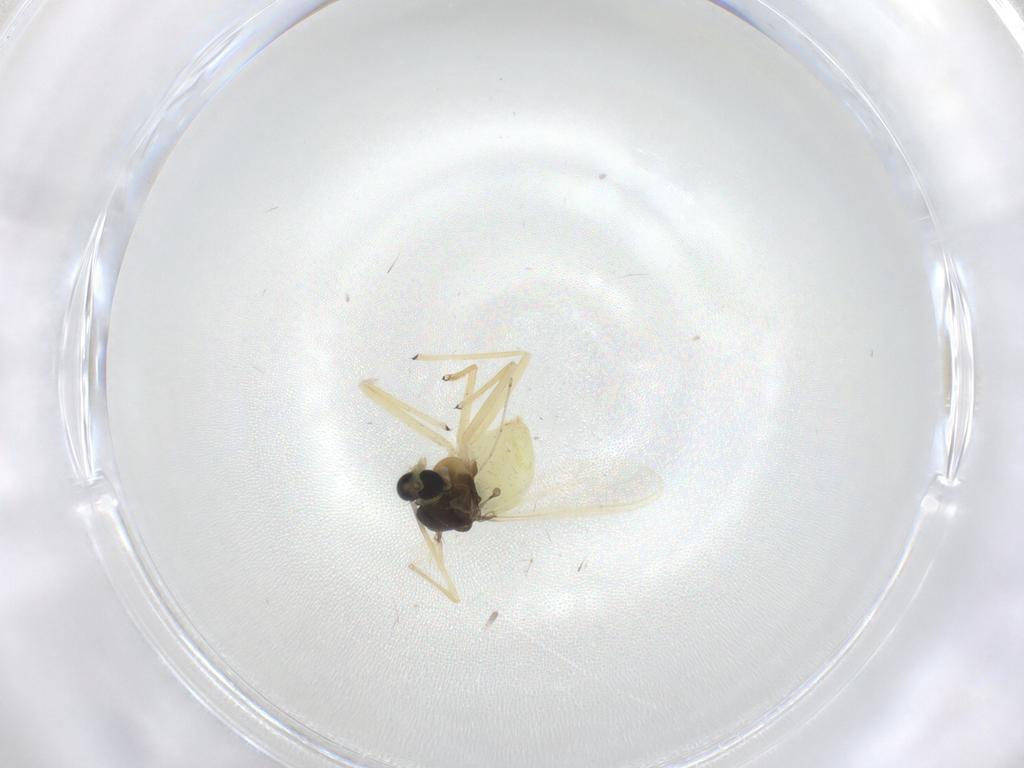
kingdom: Animalia
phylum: Arthropoda
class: Insecta
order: Diptera
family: Chironomidae
